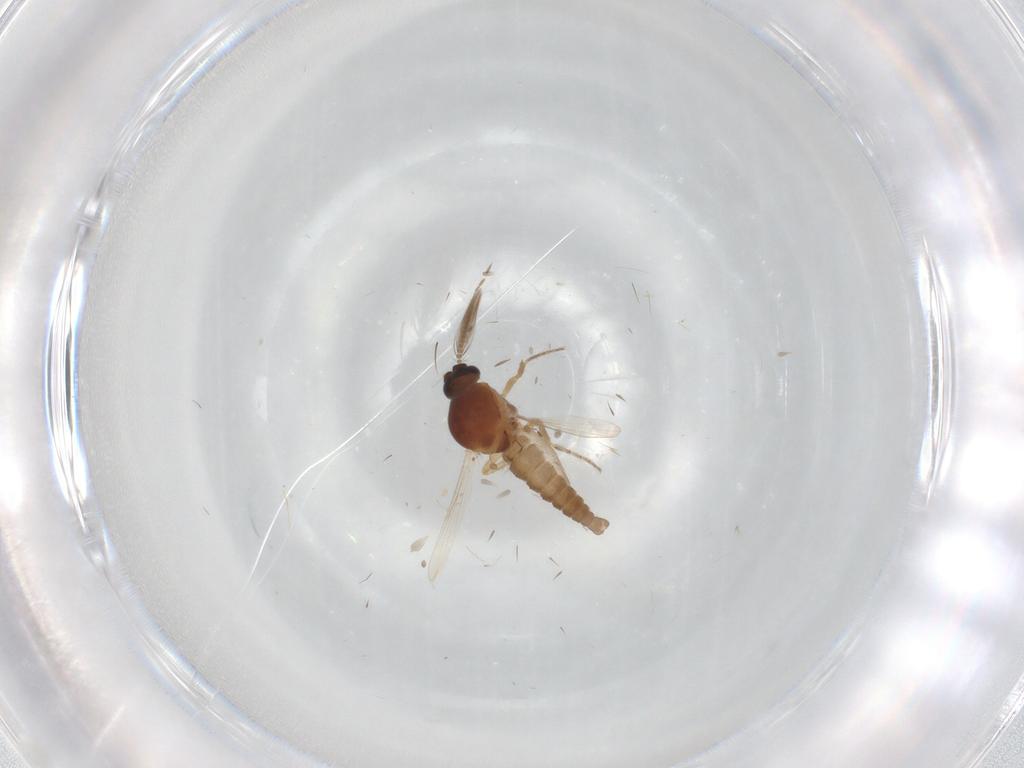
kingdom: Animalia
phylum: Arthropoda
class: Insecta
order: Diptera
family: Ceratopogonidae
